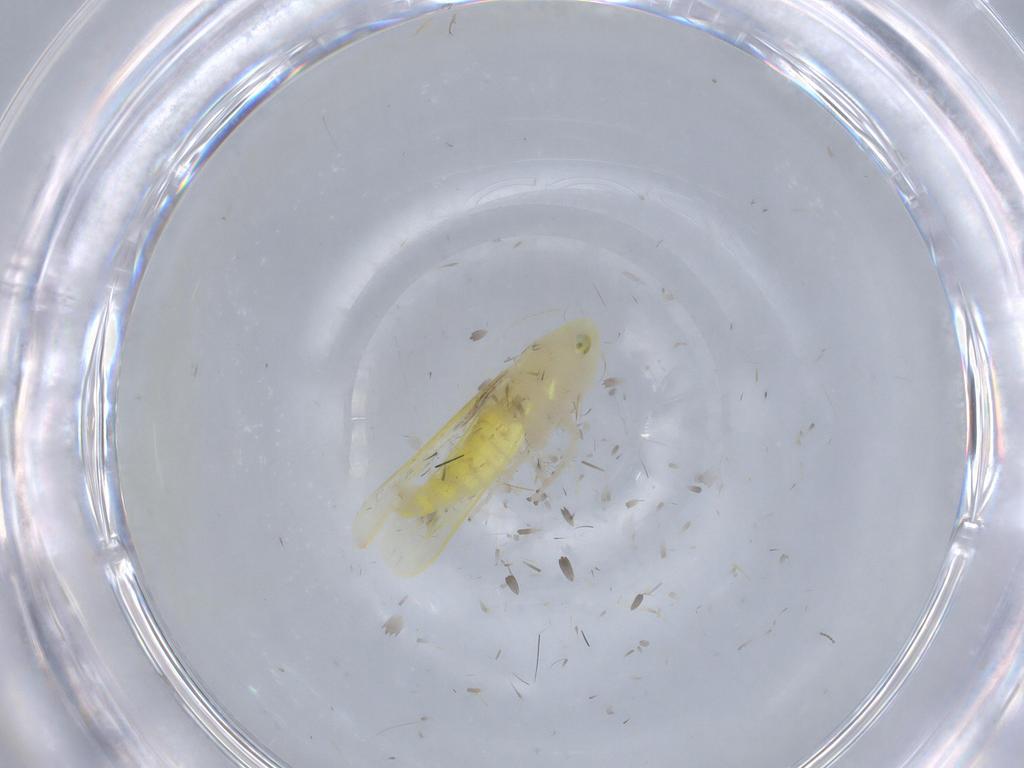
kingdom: Animalia
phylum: Arthropoda
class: Insecta
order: Hemiptera
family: Cicadellidae
